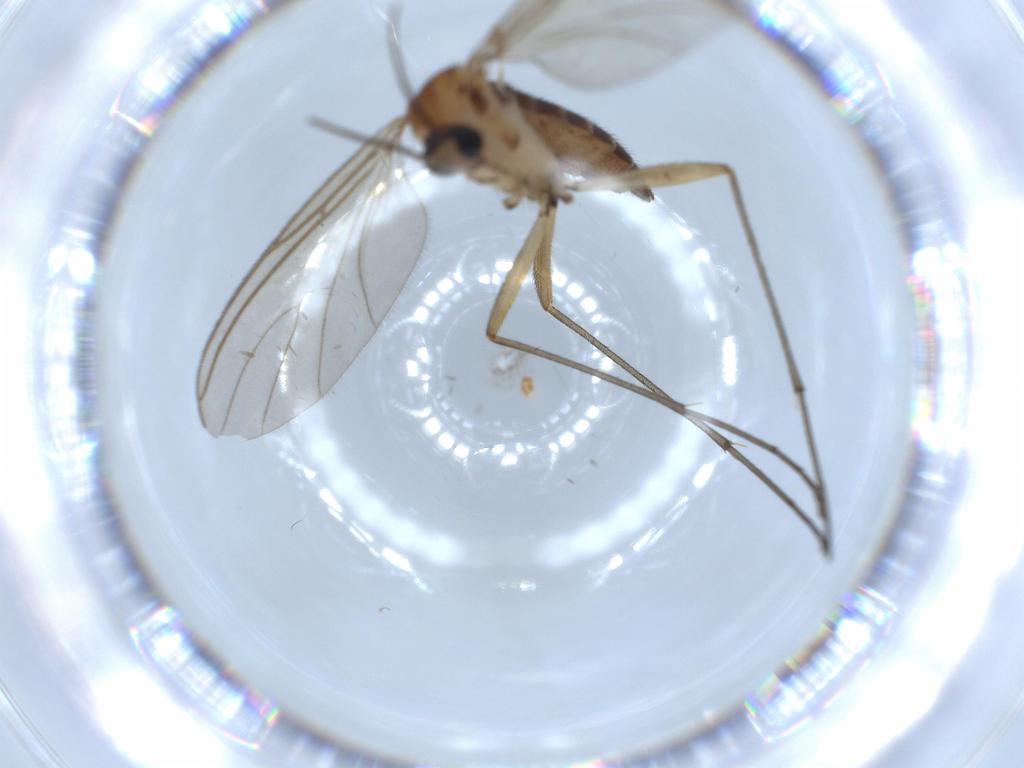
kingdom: Animalia
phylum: Arthropoda
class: Insecta
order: Diptera
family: Sciaridae
